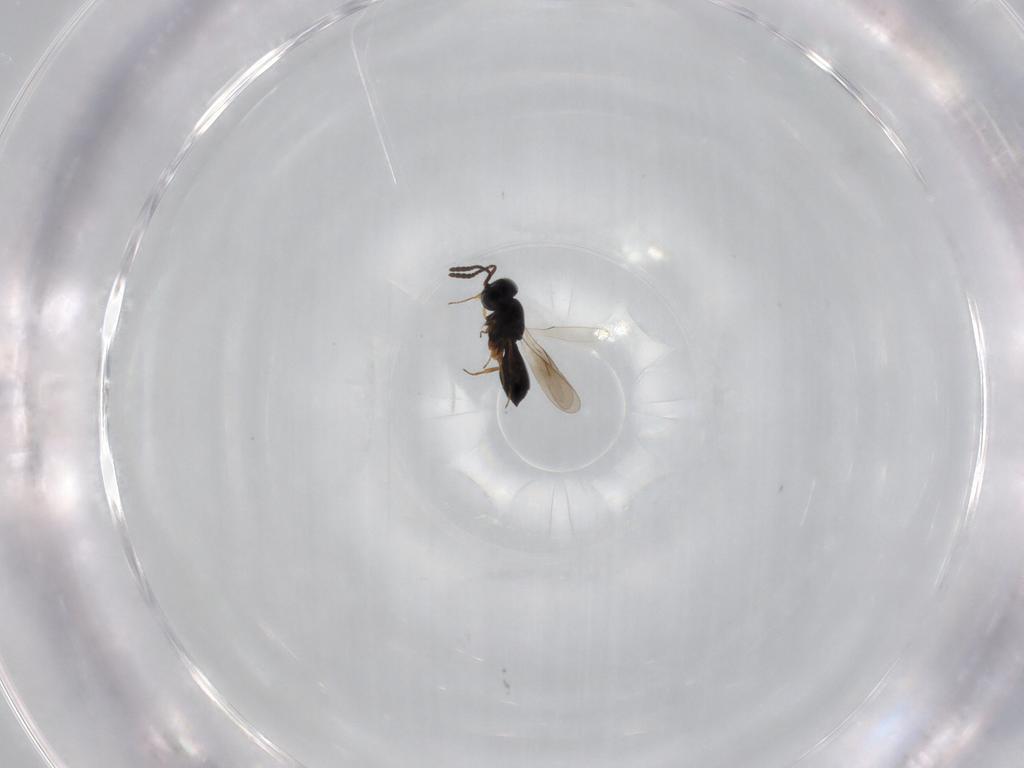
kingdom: Animalia
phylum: Arthropoda
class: Insecta
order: Hymenoptera
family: Scelionidae
